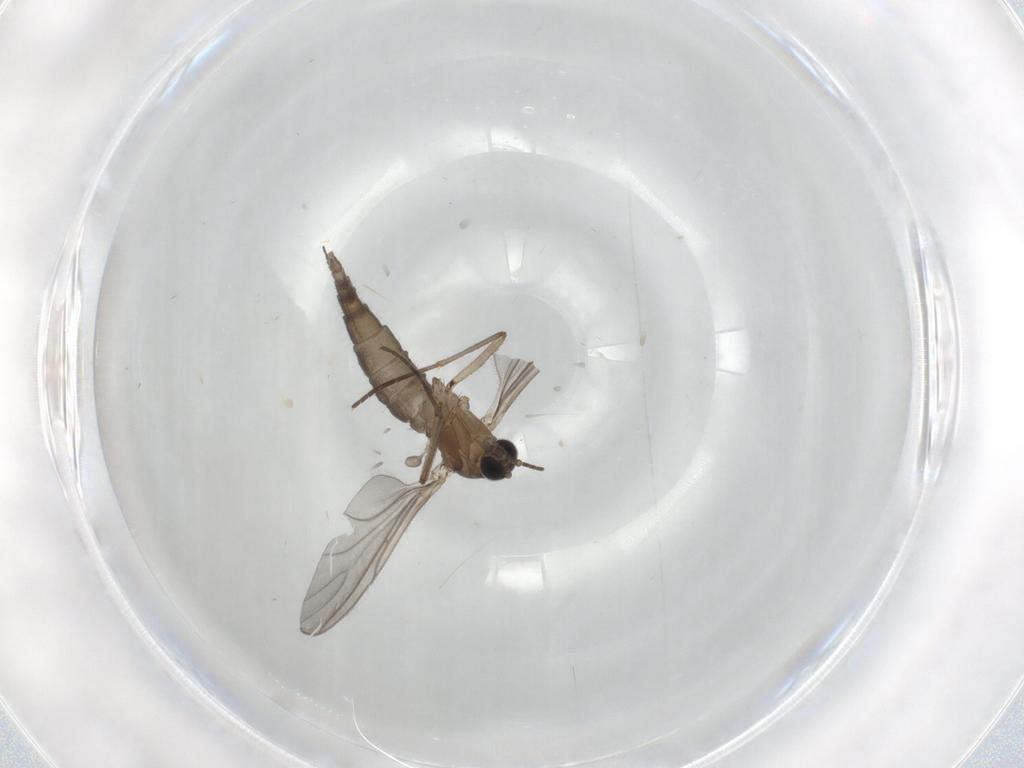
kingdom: Animalia
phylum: Arthropoda
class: Insecta
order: Diptera
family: Sciaridae
